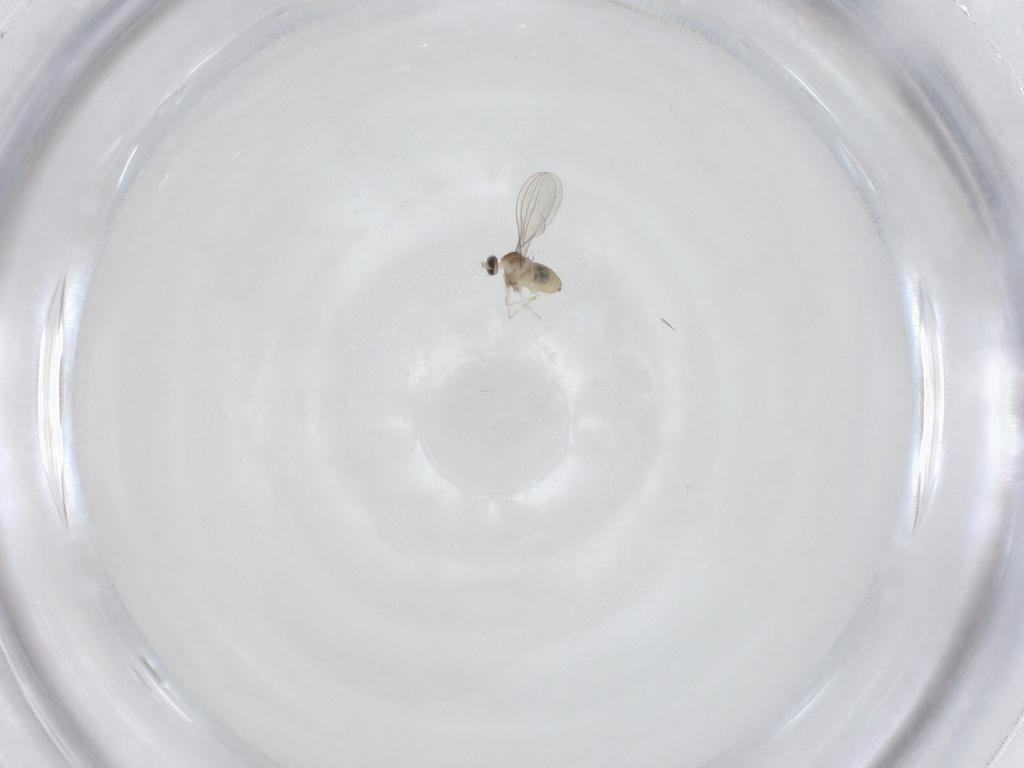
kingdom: Animalia
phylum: Arthropoda
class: Insecta
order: Diptera
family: Cecidomyiidae
